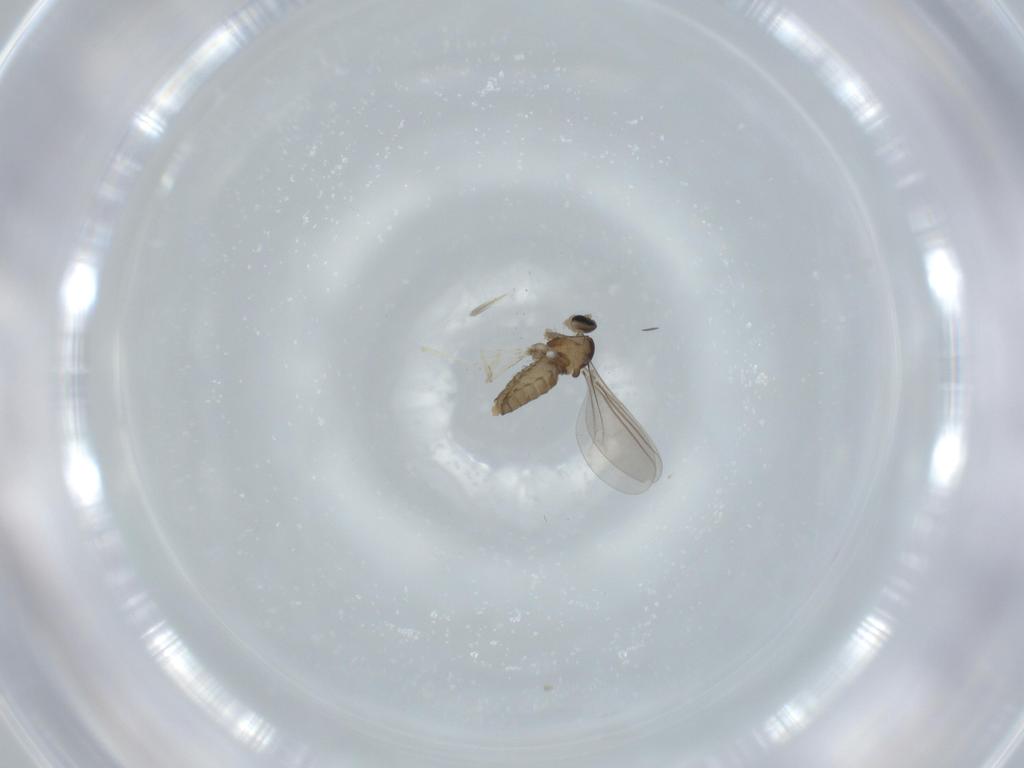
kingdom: Animalia
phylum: Arthropoda
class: Insecta
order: Diptera
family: Cecidomyiidae
